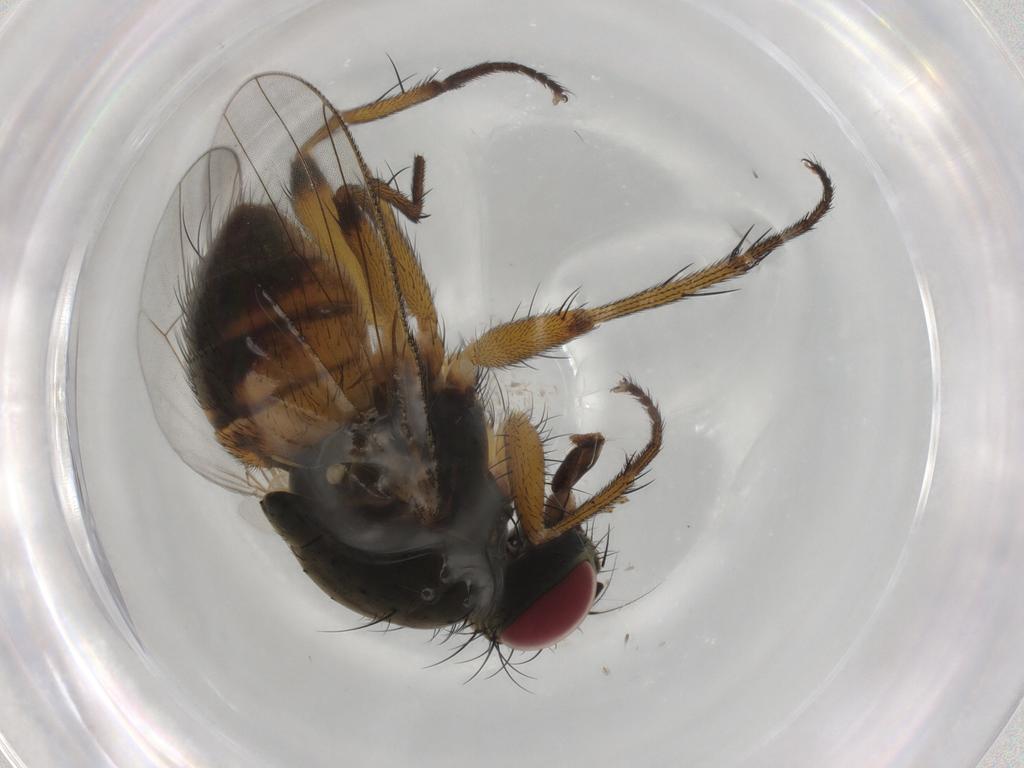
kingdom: Animalia
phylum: Arthropoda
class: Insecta
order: Diptera
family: Muscidae
